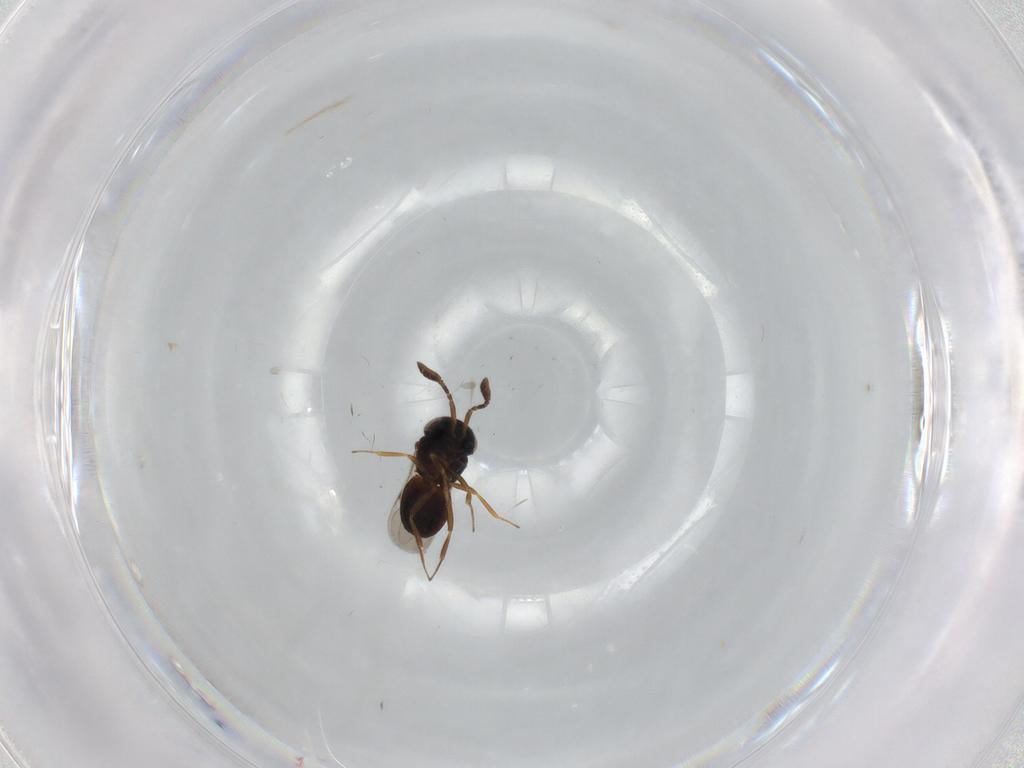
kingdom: Animalia
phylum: Arthropoda
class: Insecta
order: Hymenoptera
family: Scelionidae
